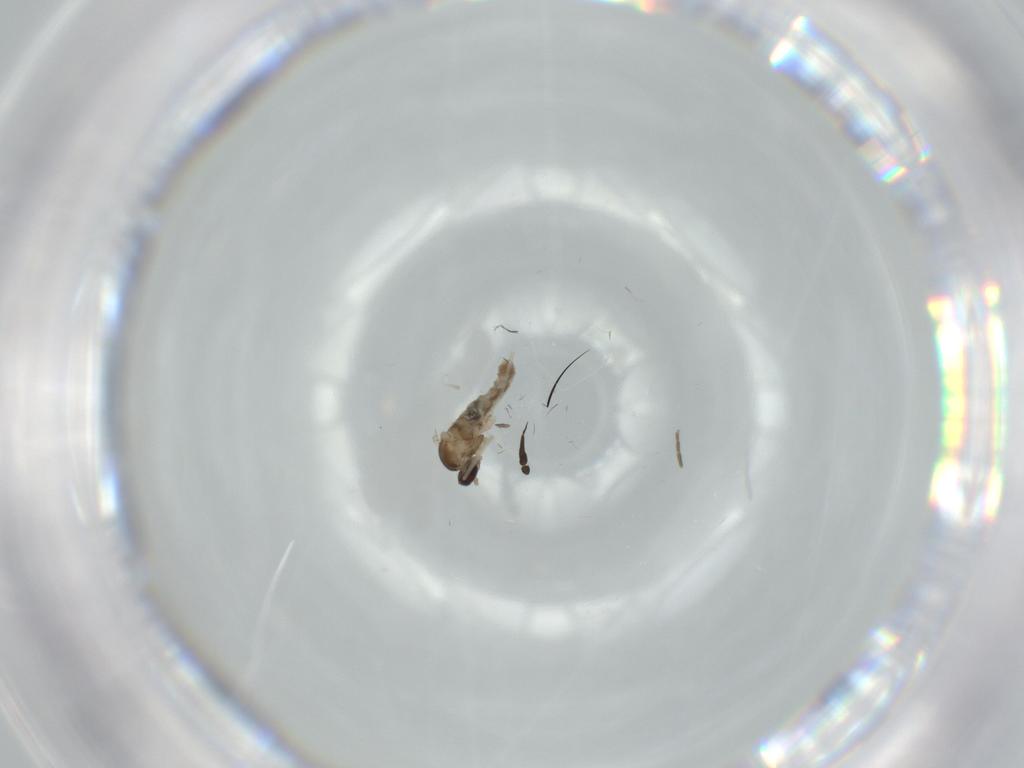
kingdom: Animalia
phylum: Arthropoda
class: Insecta
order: Diptera
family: Empididae
